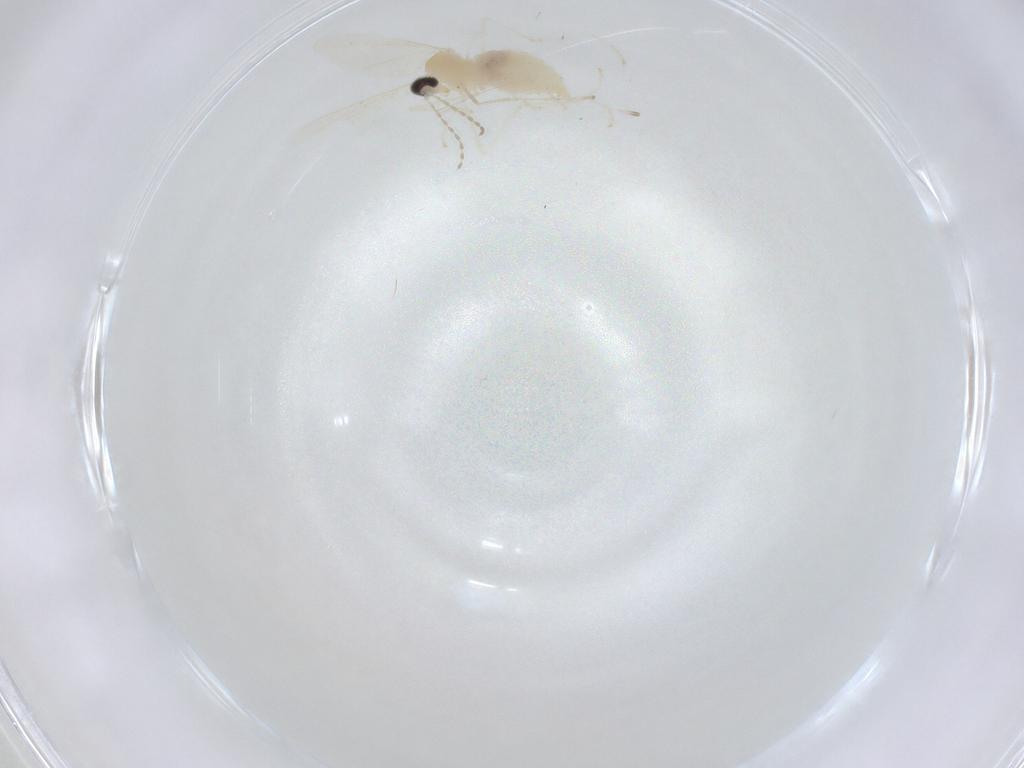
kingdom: Animalia
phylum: Arthropoda
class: Insecta
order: Diptera
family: Cecidomyiidae
